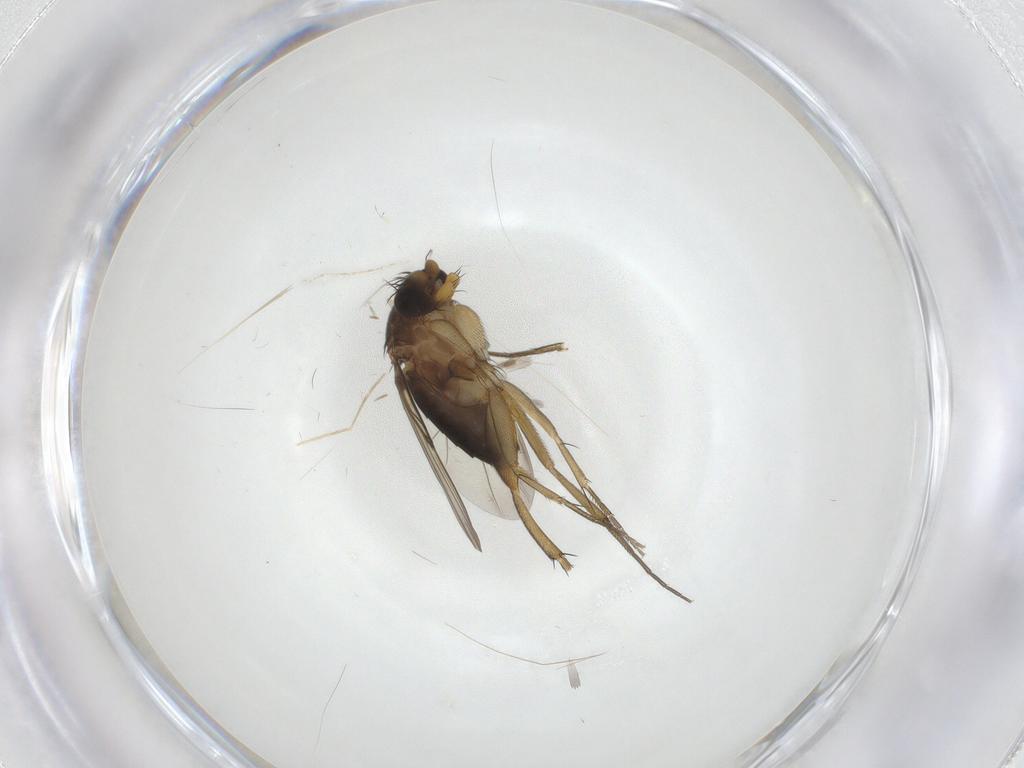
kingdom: Animalia
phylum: Arthropoda
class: Insecta
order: Diptera
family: Phoridae
